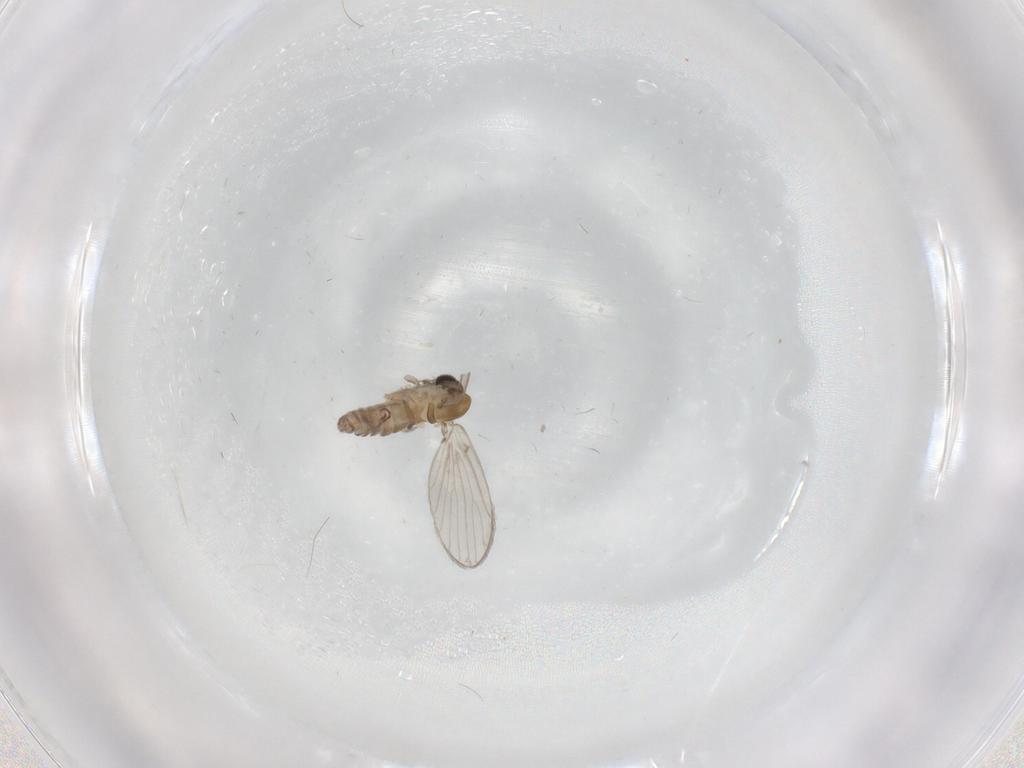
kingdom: Animalia
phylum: Arthropoda
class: Insecta
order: Diptera
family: Psychodidae
